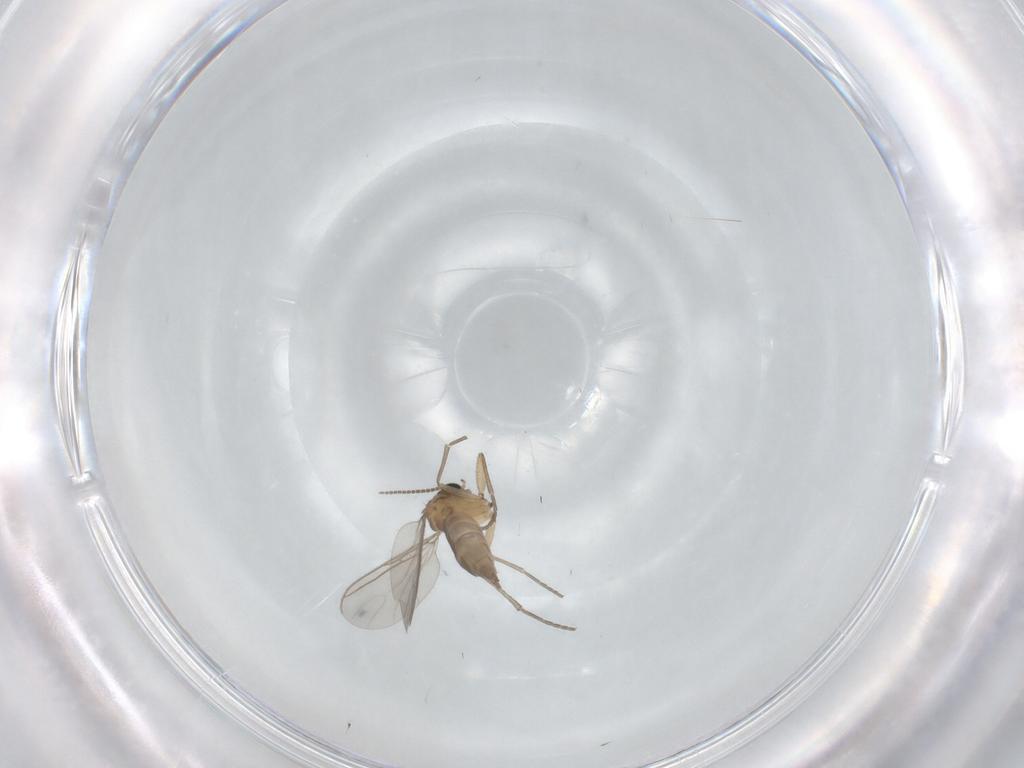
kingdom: Animalia
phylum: Arthropoda
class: Insecta
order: Diptera
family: Sciaridae
